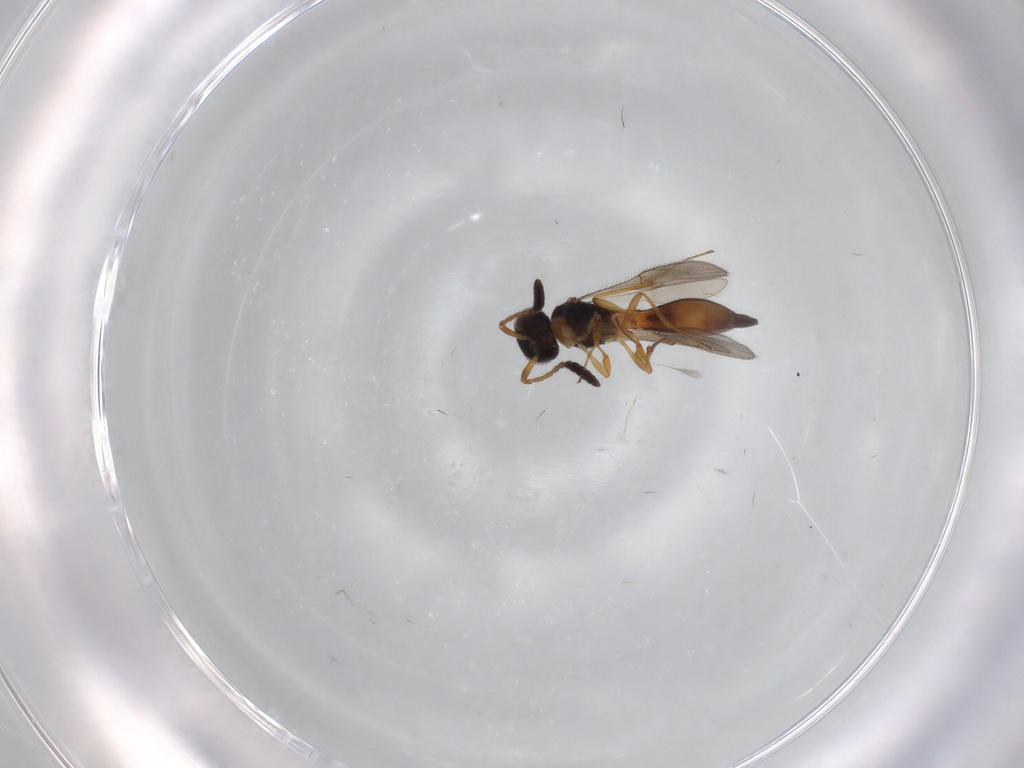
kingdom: Animalia
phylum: Arthropoda
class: Insecta
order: Hymenoptera
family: Scelionidae
